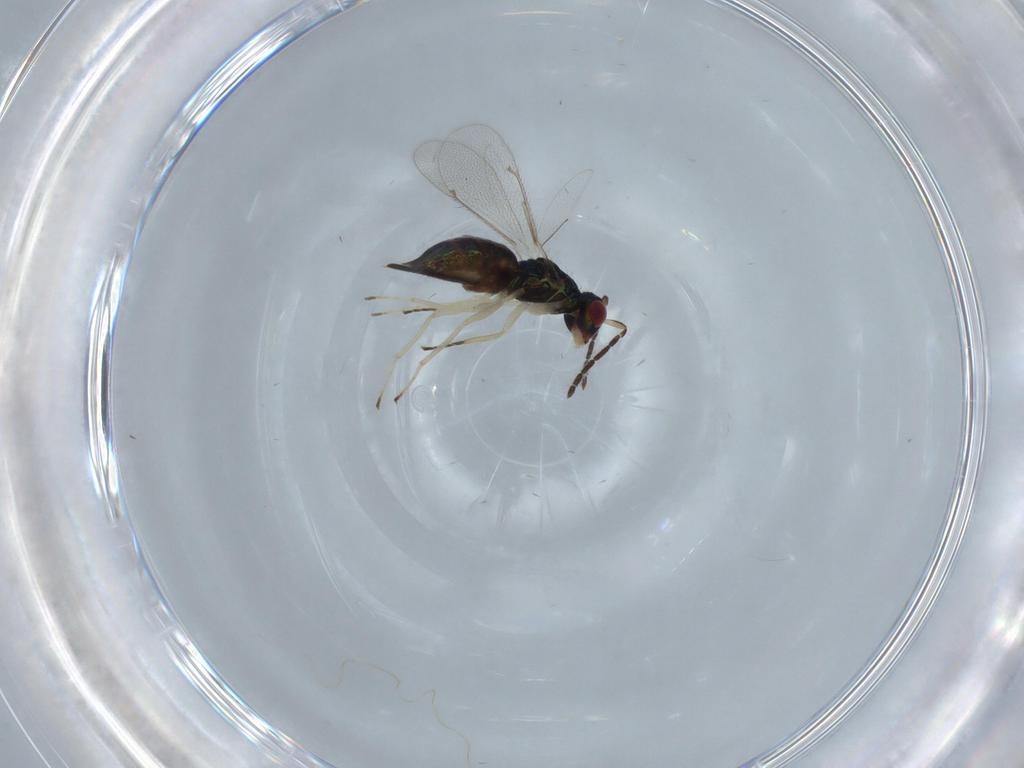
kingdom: Animalia
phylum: Arthropoda
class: Insecta
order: Hymenoptera
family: Eulophidae
